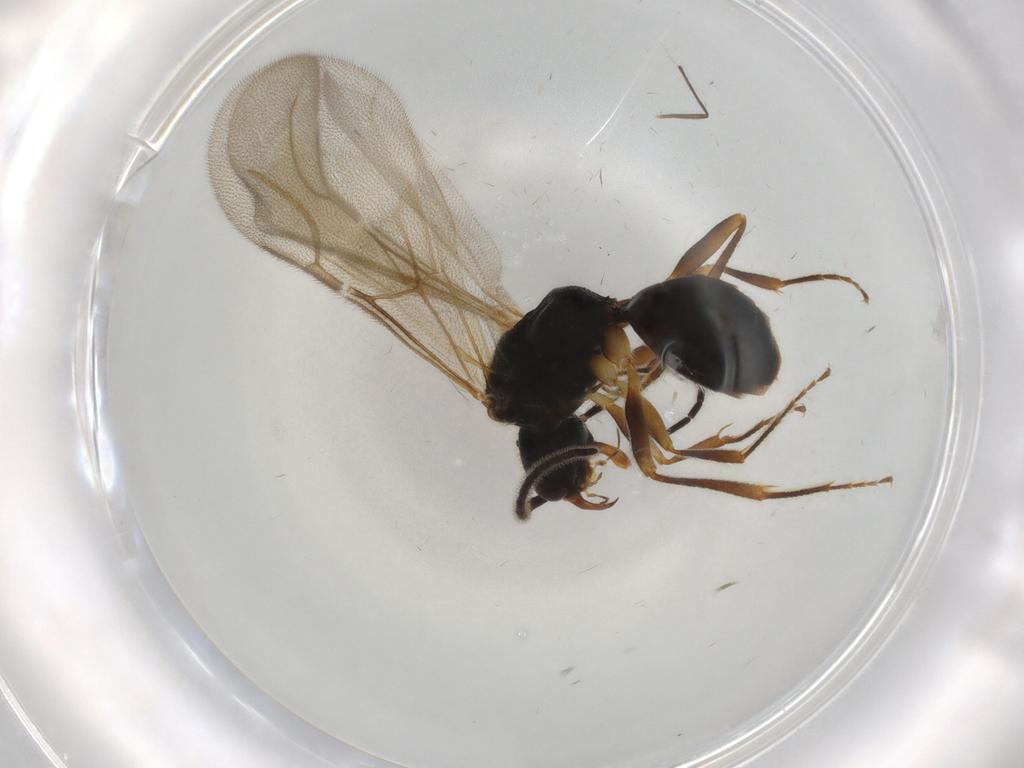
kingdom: Animalia
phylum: Arthropoda
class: Insecta
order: Hymenoptera
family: Bethylidae
